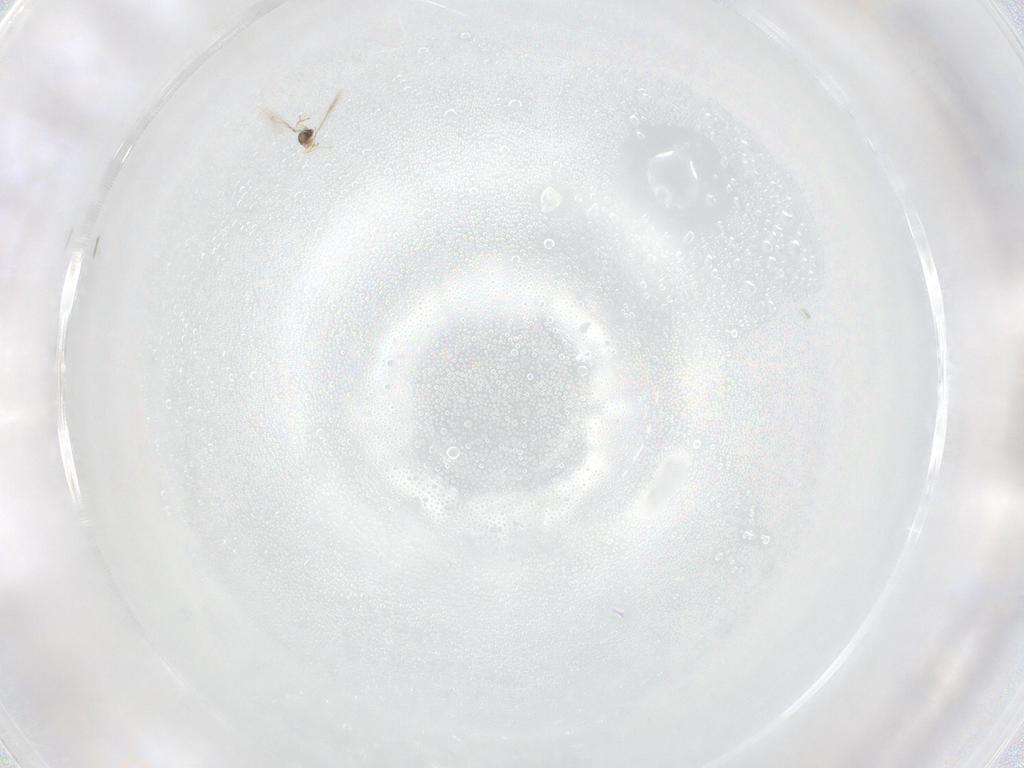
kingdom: Animalia
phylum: Arthropoda
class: Insecta
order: Hymenoptera
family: Scelionidae
